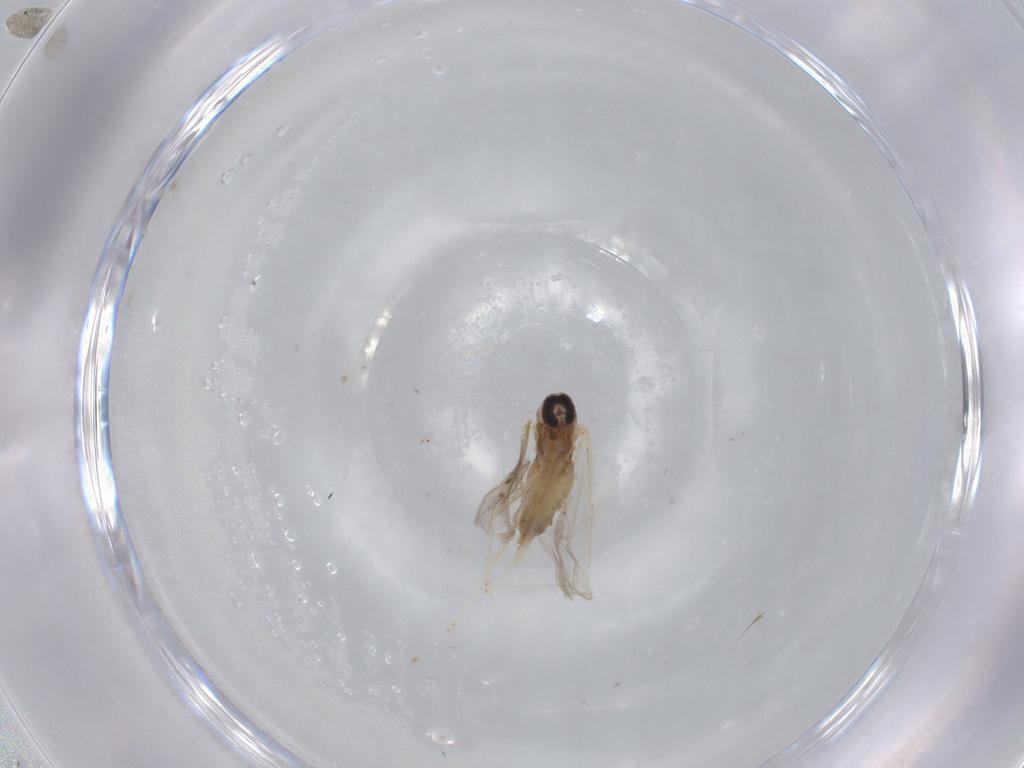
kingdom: Animalia
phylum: Arthropoda
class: Insecta
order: Diptera
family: Cecidomyiidae
